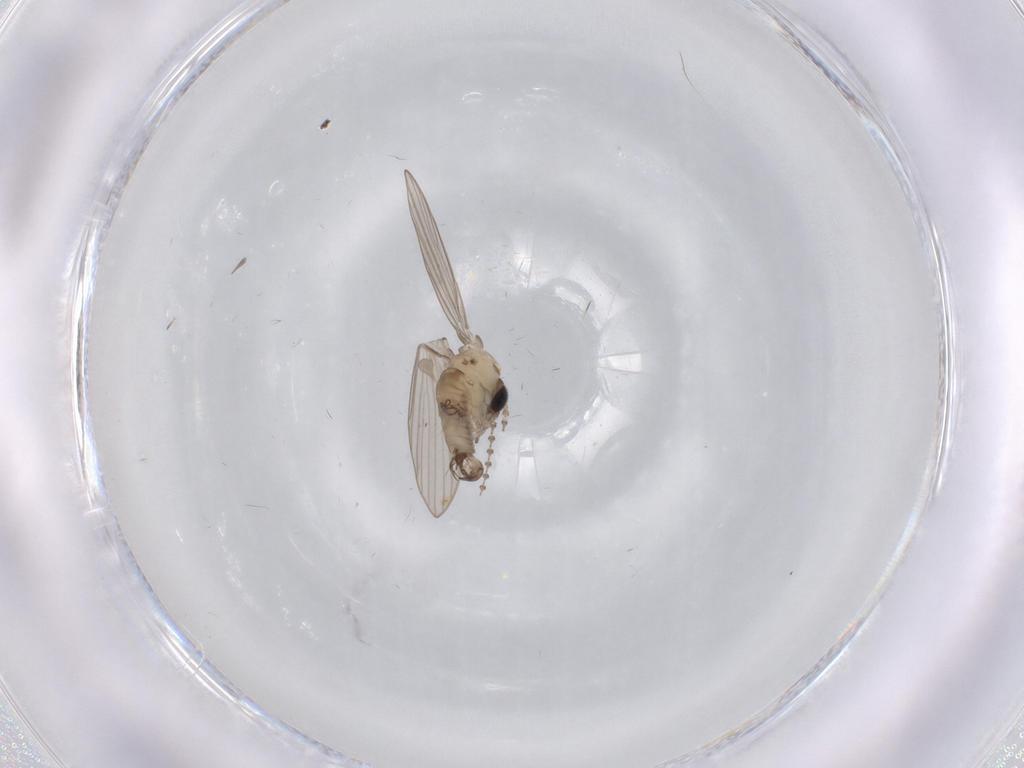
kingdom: Animalia
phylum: Arthropoda
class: Insecta
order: Diptera
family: Psychodidae
